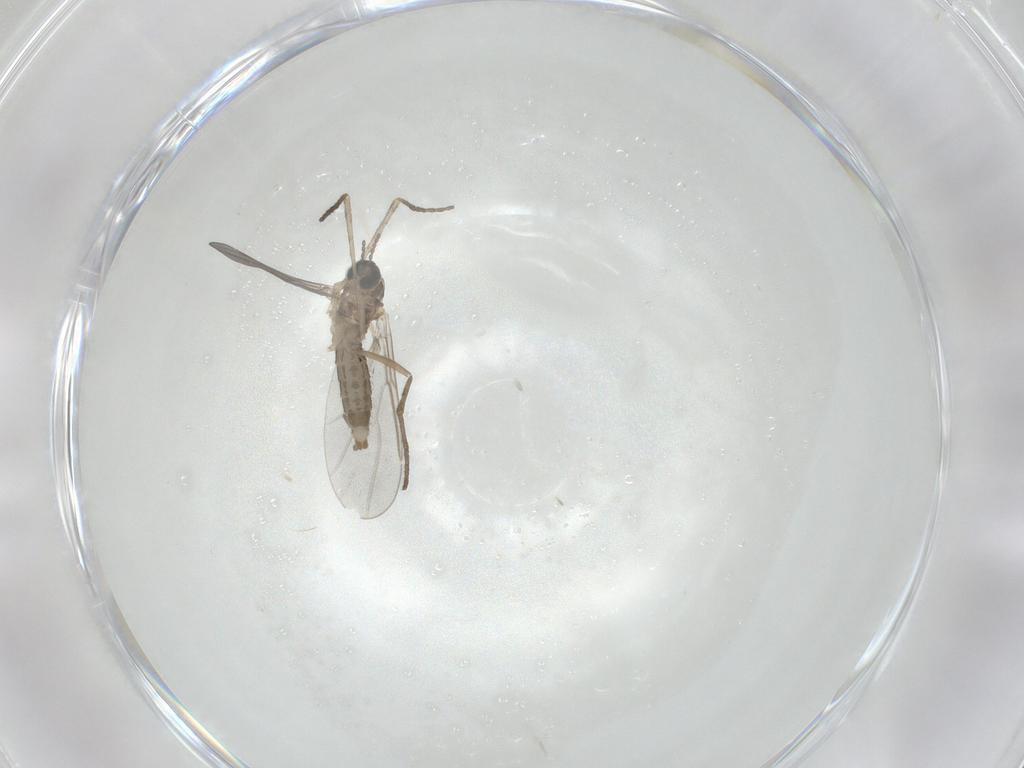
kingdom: Animalia
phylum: Arthropoda
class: Insecta
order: Diptera
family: Cecidomyiidae
